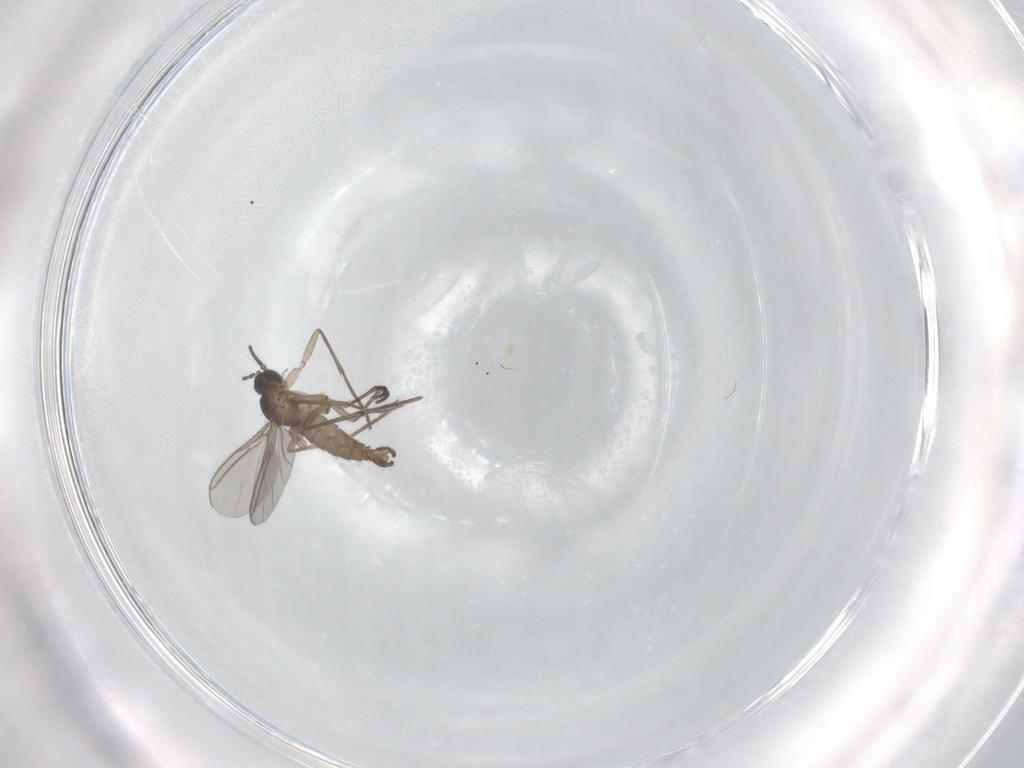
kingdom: Animalia
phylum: Arthropoda
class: Insecta
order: Diptera
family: Sciaridae
